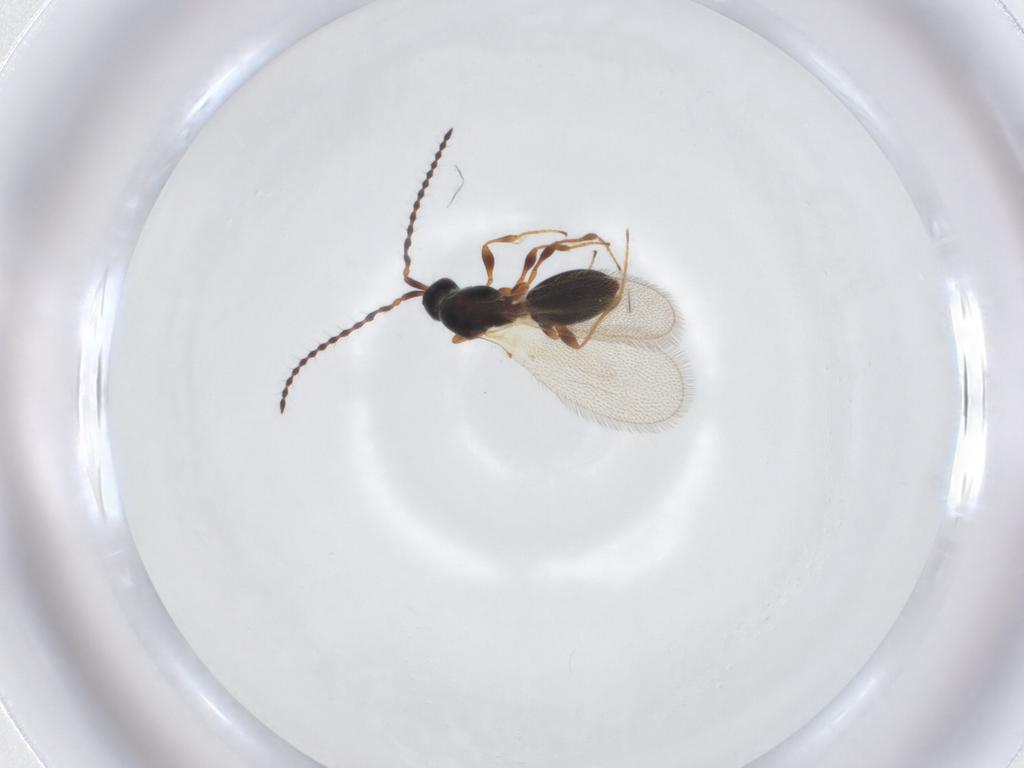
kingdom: Animalia
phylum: Arthropoda
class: Insecta
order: Hymenoptera
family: Diapriidae
